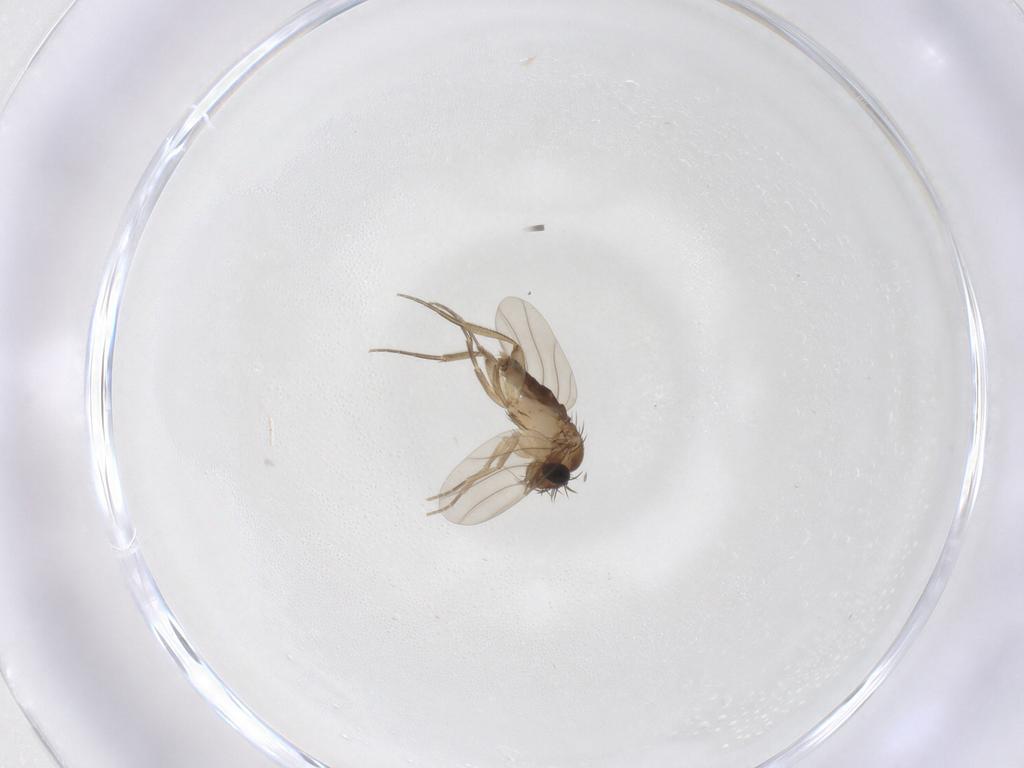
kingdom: Animalia
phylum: Arthropoda
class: Insecta
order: Diptera
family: Phoridae
